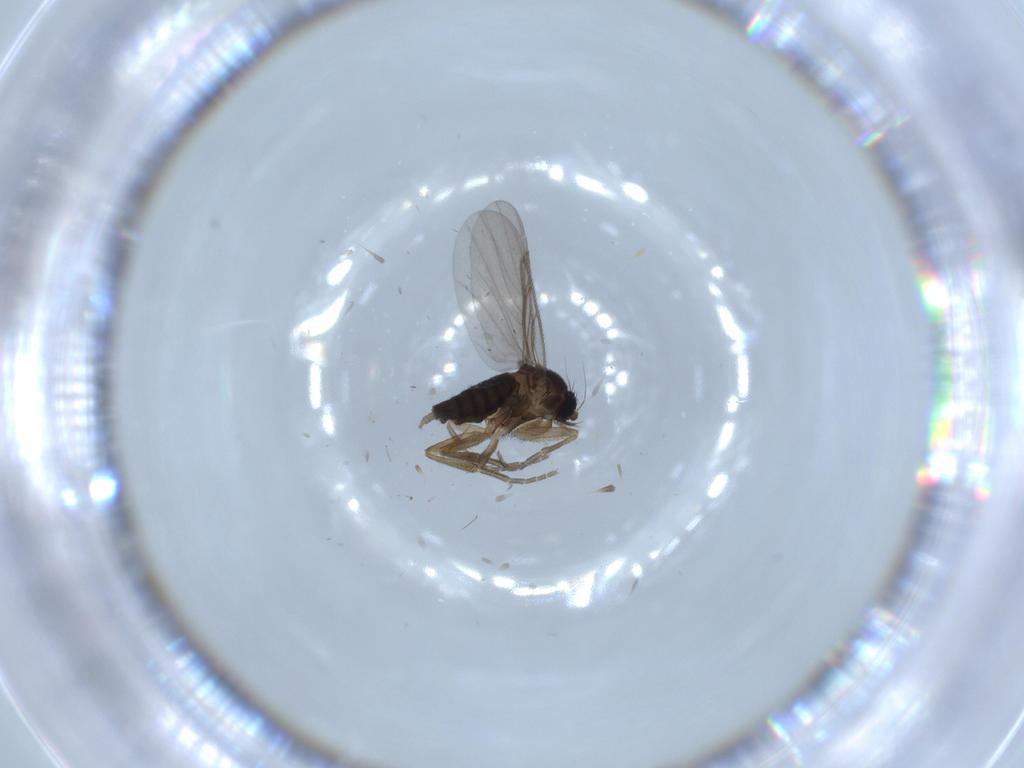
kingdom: Animalia
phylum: Arthropoda
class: Insecta
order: Diptera
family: Sciaridae
